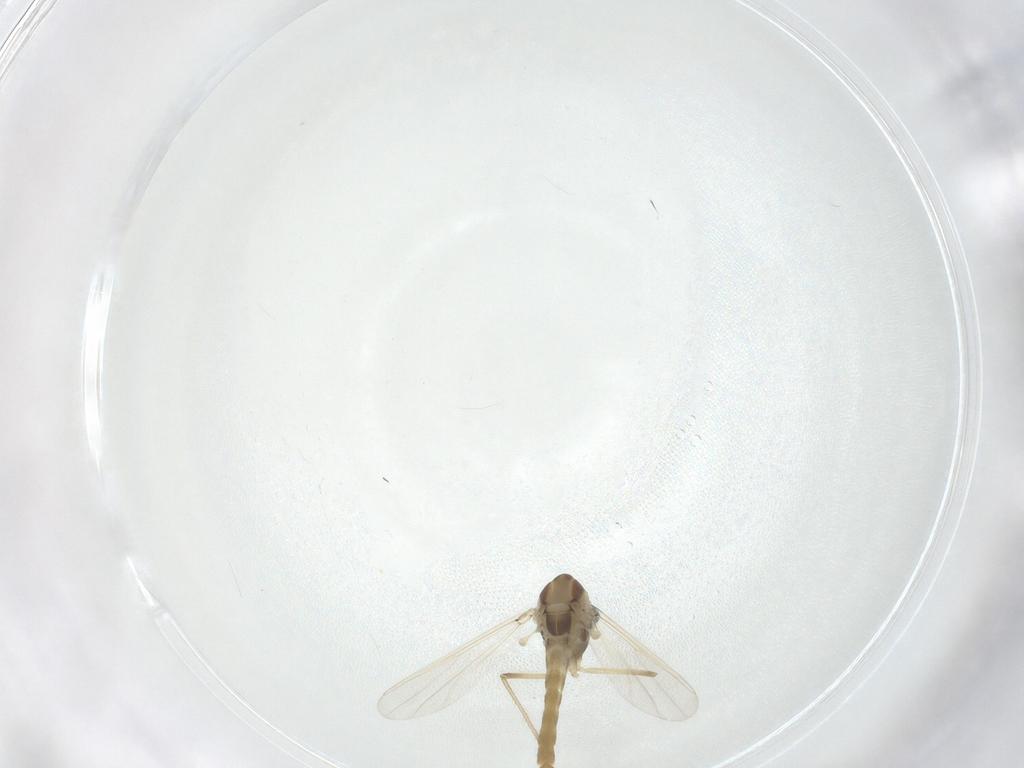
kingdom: Animalia
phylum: Arthropoda
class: Insecta
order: Diptera
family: Chironomidae
